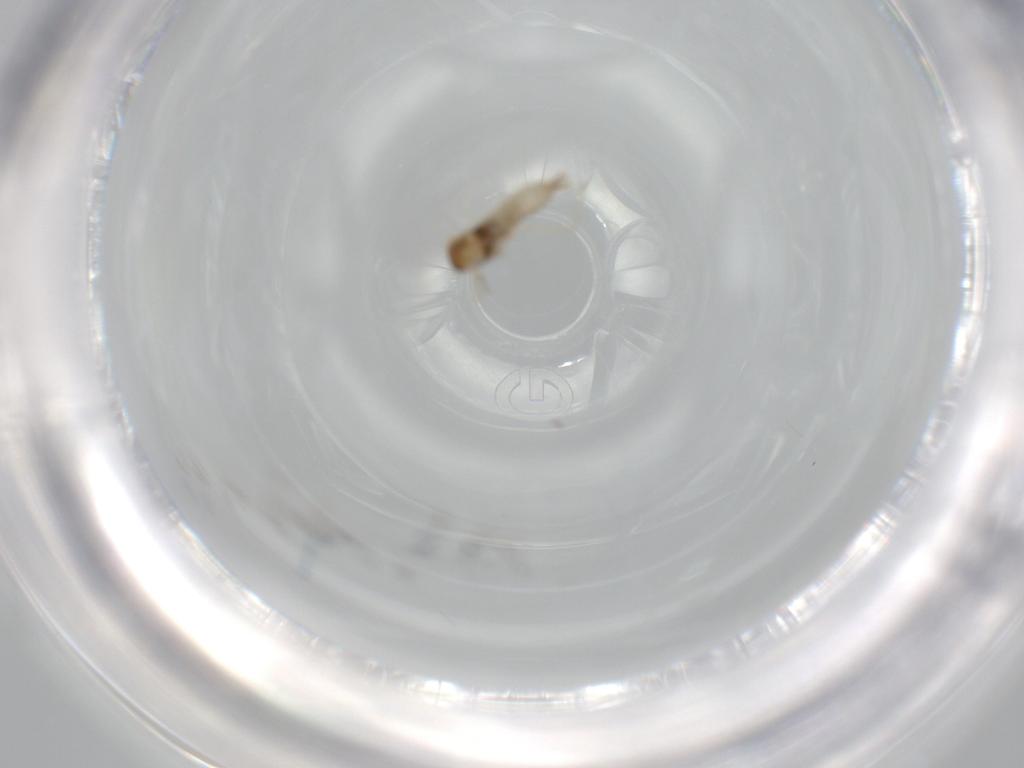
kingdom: Animalia
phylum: Arthropoda
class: Insecta
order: Diptera
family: Cecidomyiidae
